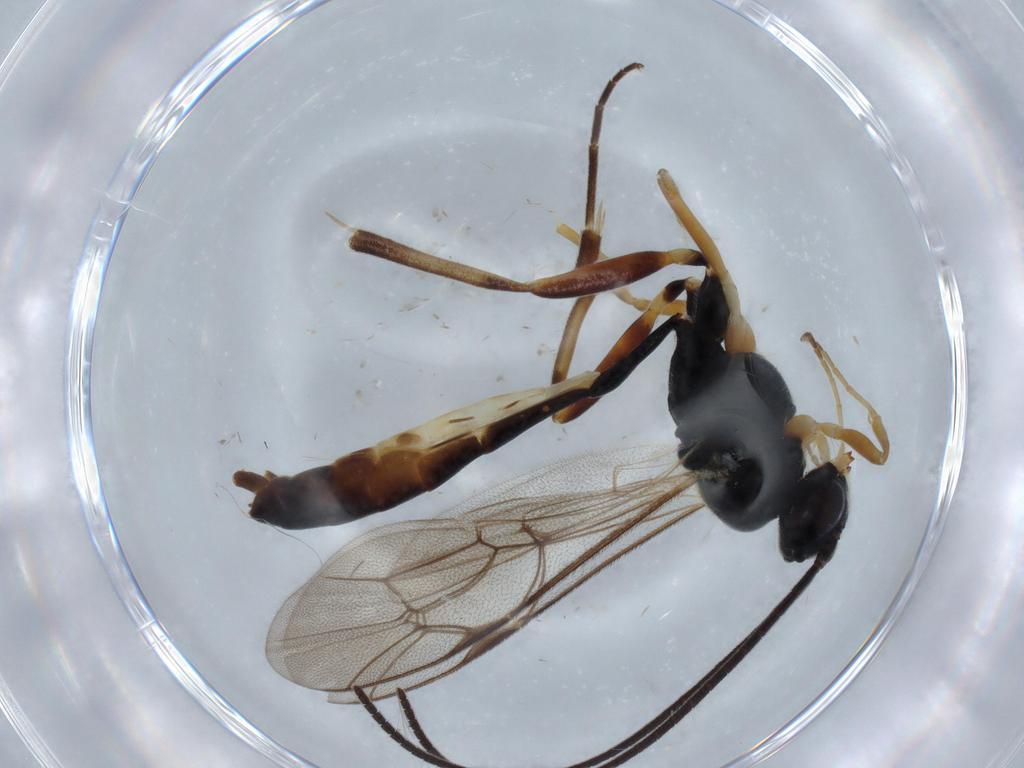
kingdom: Animalia
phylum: Arthropoda
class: Insecta
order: Hymenoptera
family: Ichneumonidae
